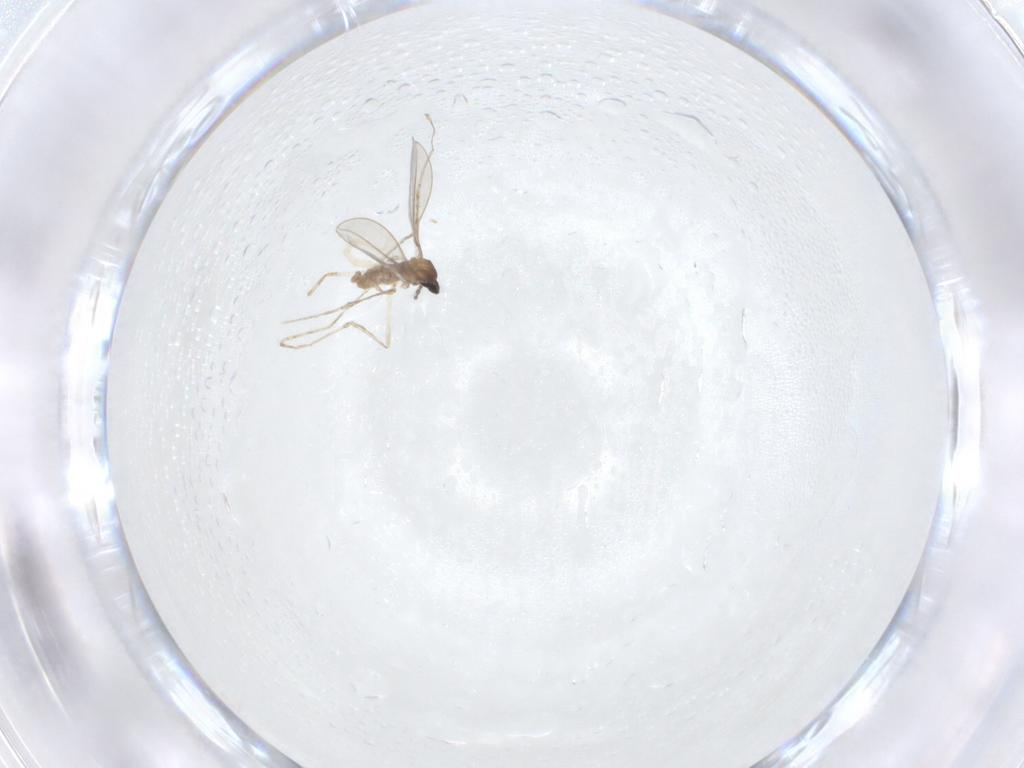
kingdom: Animalia
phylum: Arthropoda
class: Insecta
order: Diptera
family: Cecidomyiidae
